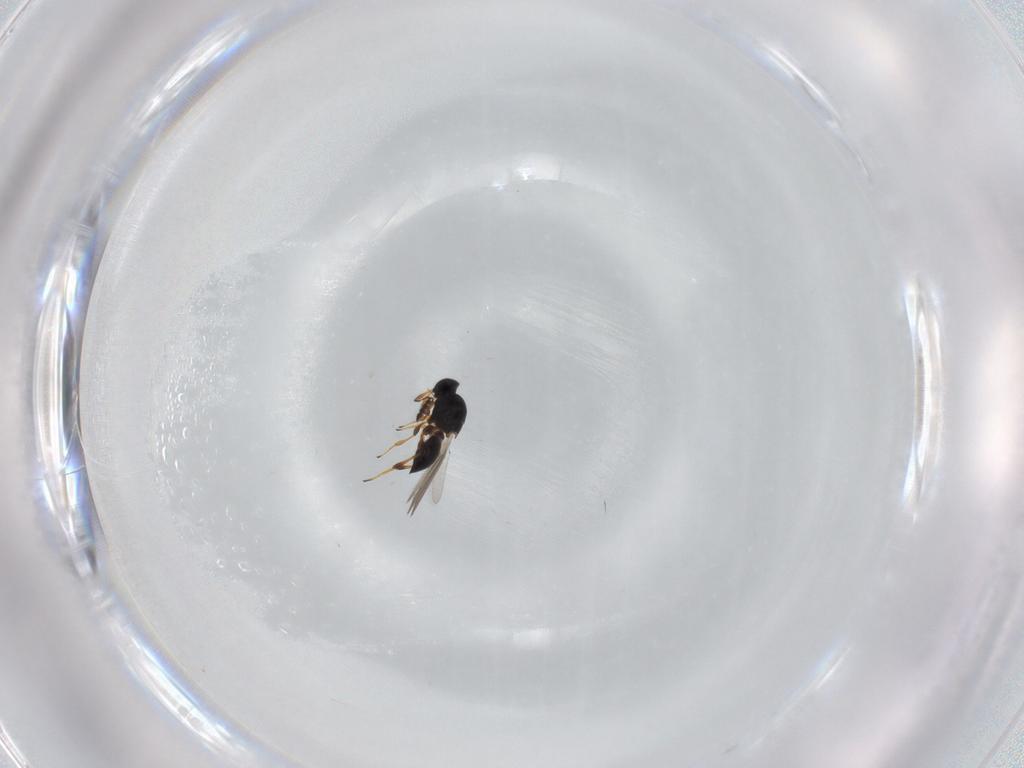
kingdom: Animalia
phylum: Arthropoda
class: Insecta
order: Hymenoptera
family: Platygastridae
